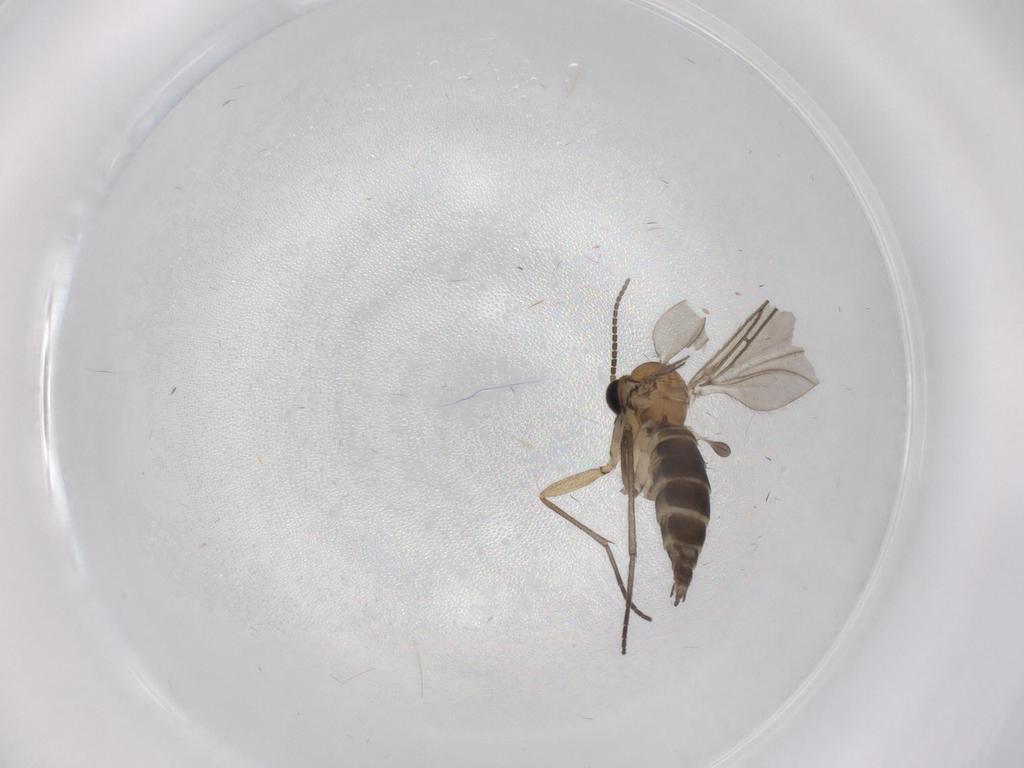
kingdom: Animalia
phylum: Arthropoda
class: Insecta
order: Diptera
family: Sciaridae
